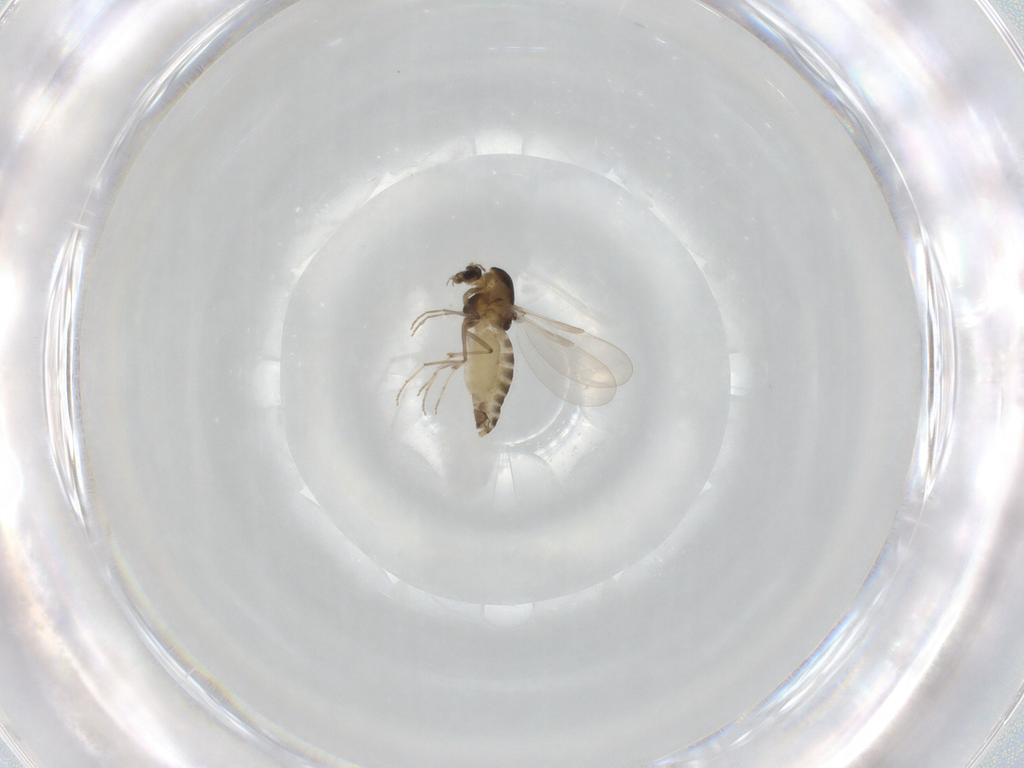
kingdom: Animalia
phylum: Arthropoda
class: Insecta
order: Diptera
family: Chironomidae
